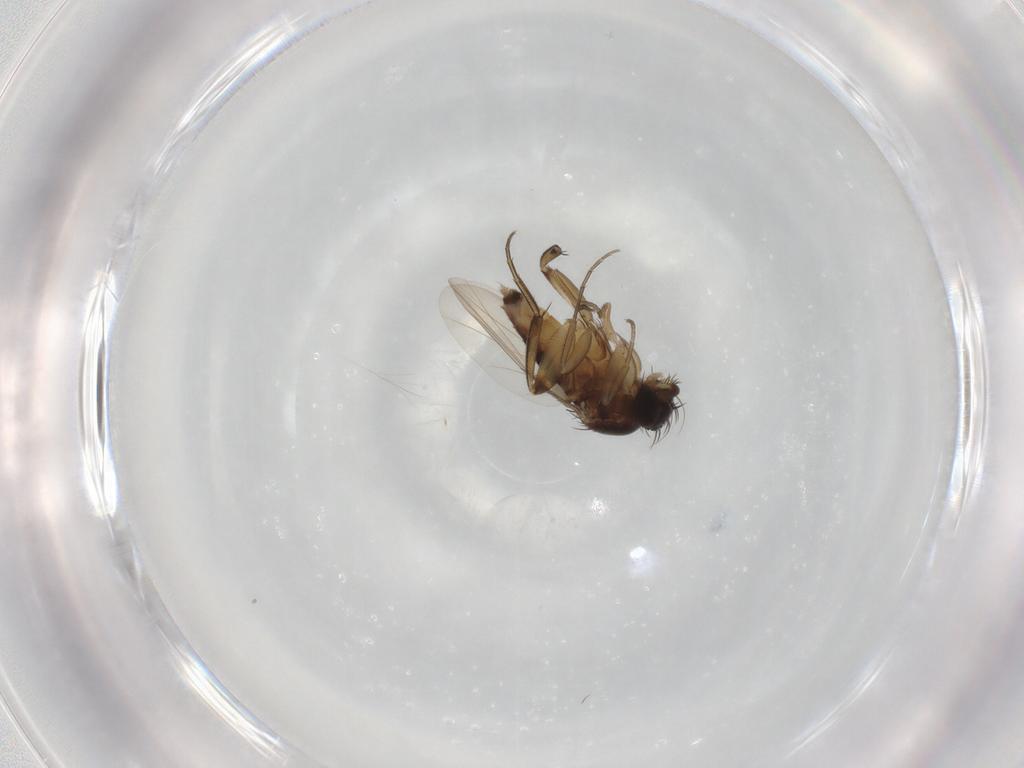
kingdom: Animalia
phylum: Arthropoda
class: Insecta
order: Diptera
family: Phoridae
